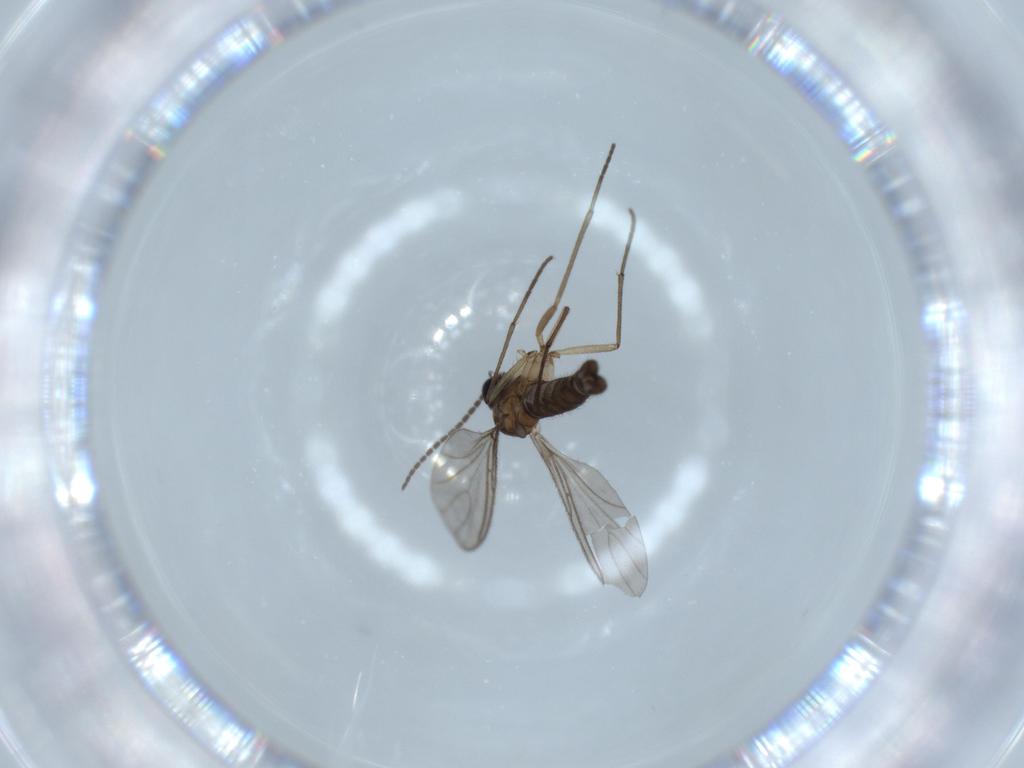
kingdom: Animalia
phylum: Arthropoda
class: Insecta
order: Diptera
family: Sciaridae
